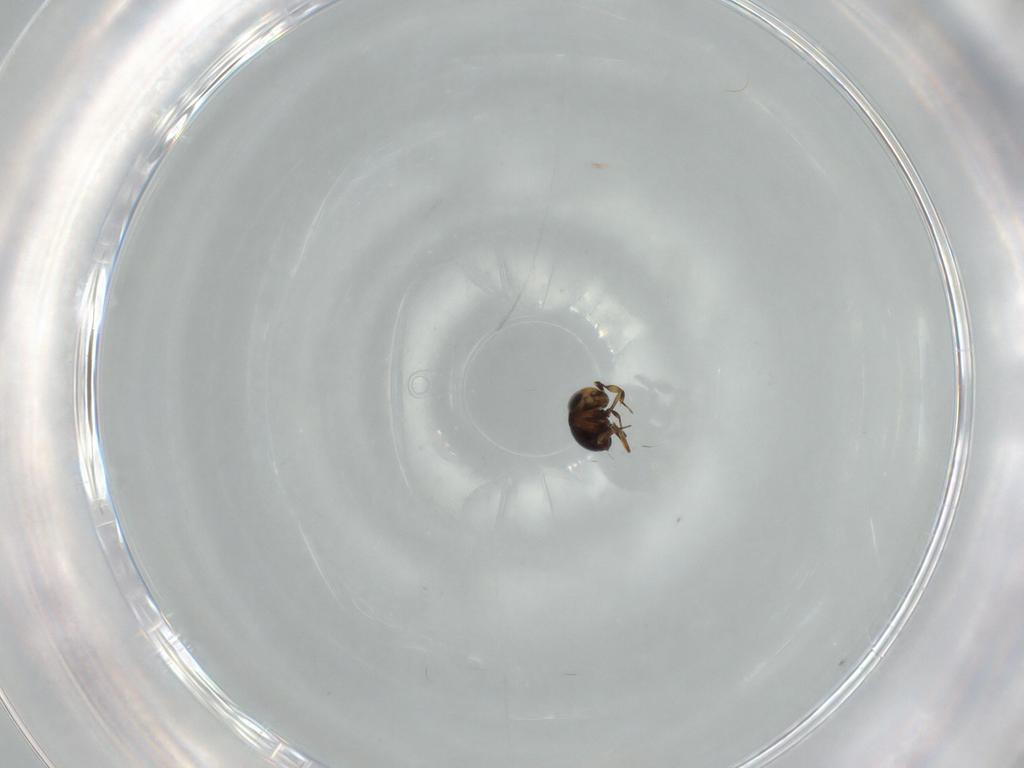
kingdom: Animalia
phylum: Arthropoda
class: Insecta
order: Hymenoptera
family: Scelionidae
